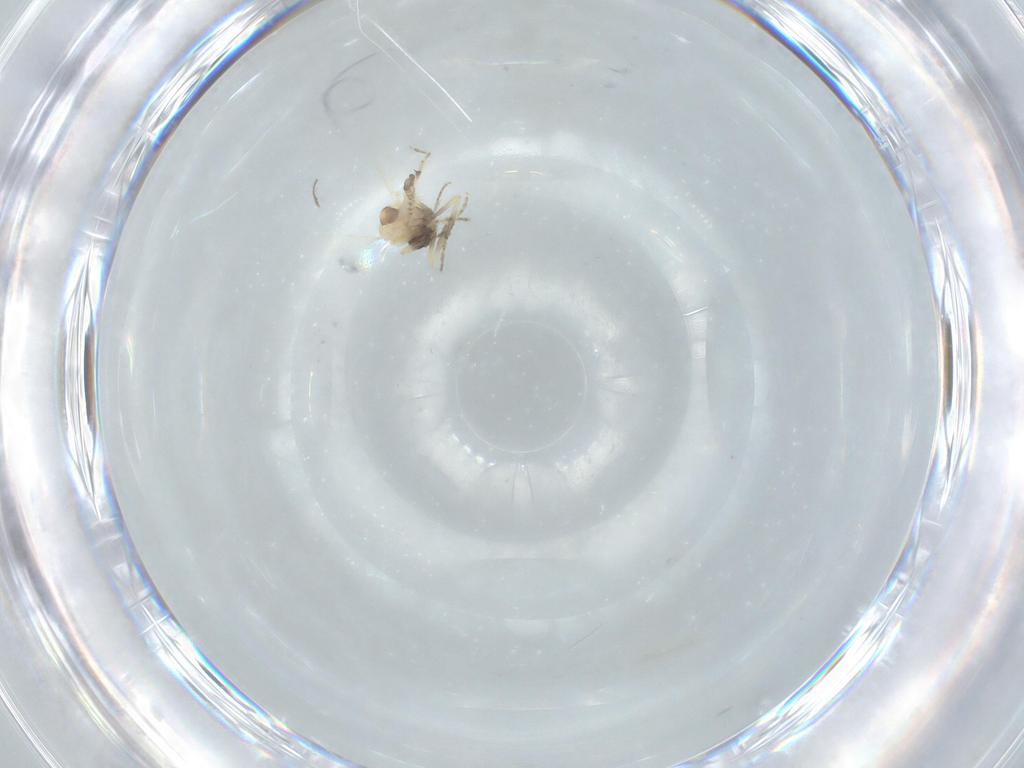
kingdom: Animalia
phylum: Arthropoda
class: Insecta
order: Diptera
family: Ceratopogonidae
